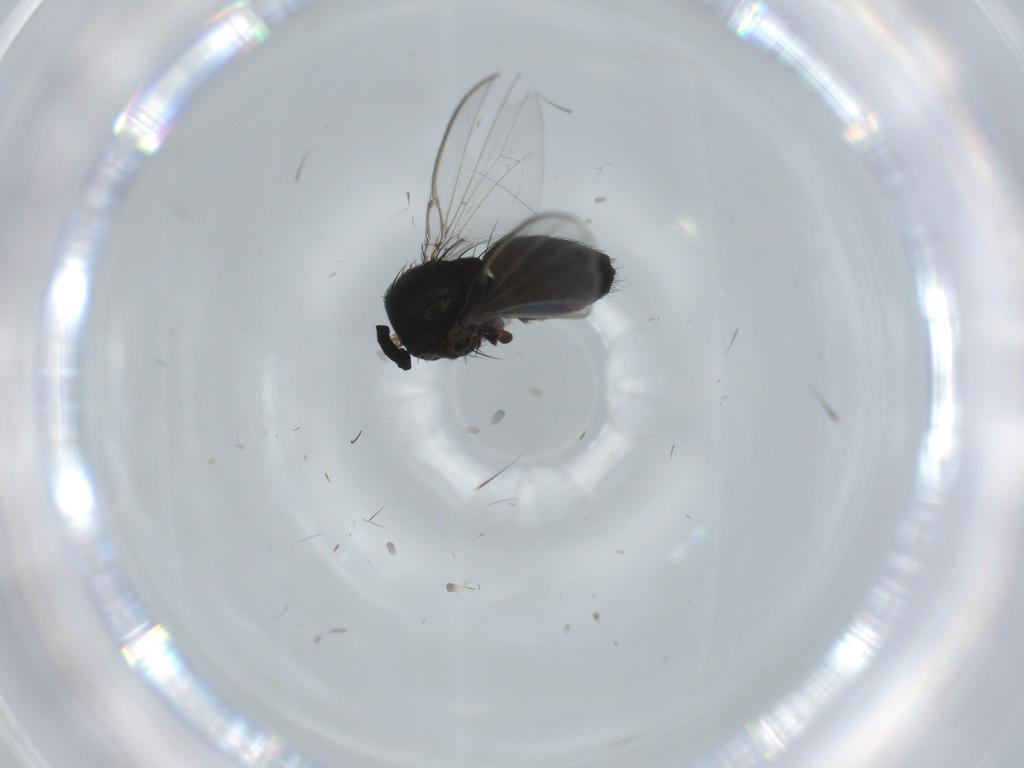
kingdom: Animalia
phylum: Arthropoda
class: Insecta
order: Diptera
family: Milichiidae
